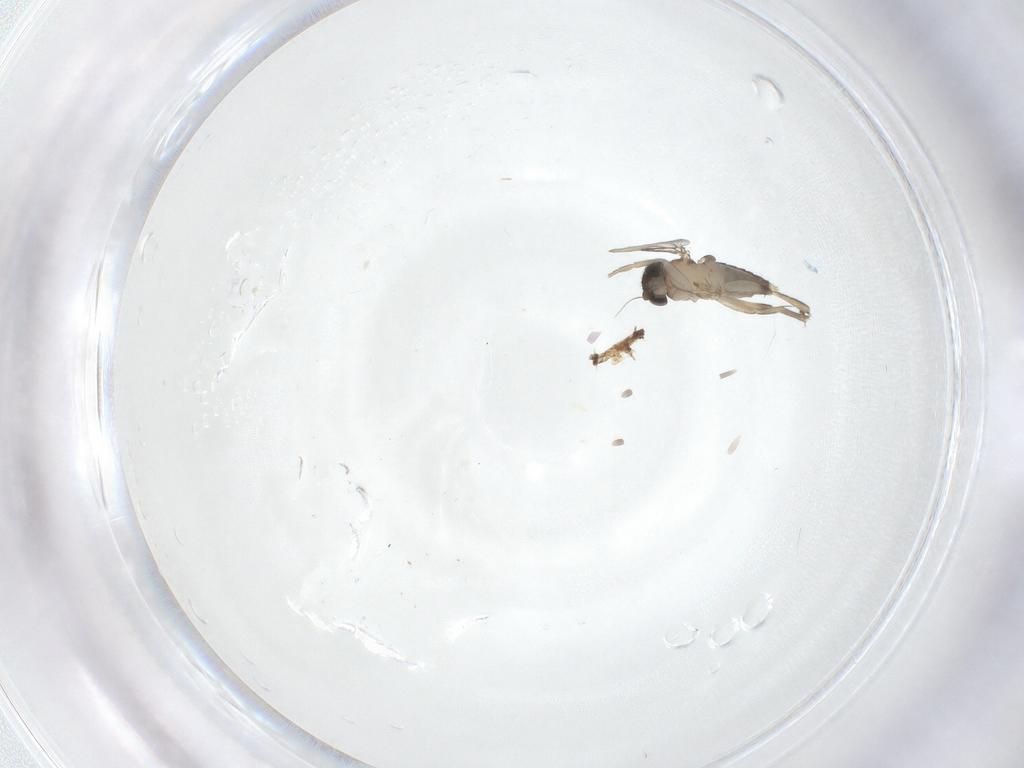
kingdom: Animalia
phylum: Arthropoda
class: Insecta
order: Diptera
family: Phoridae
